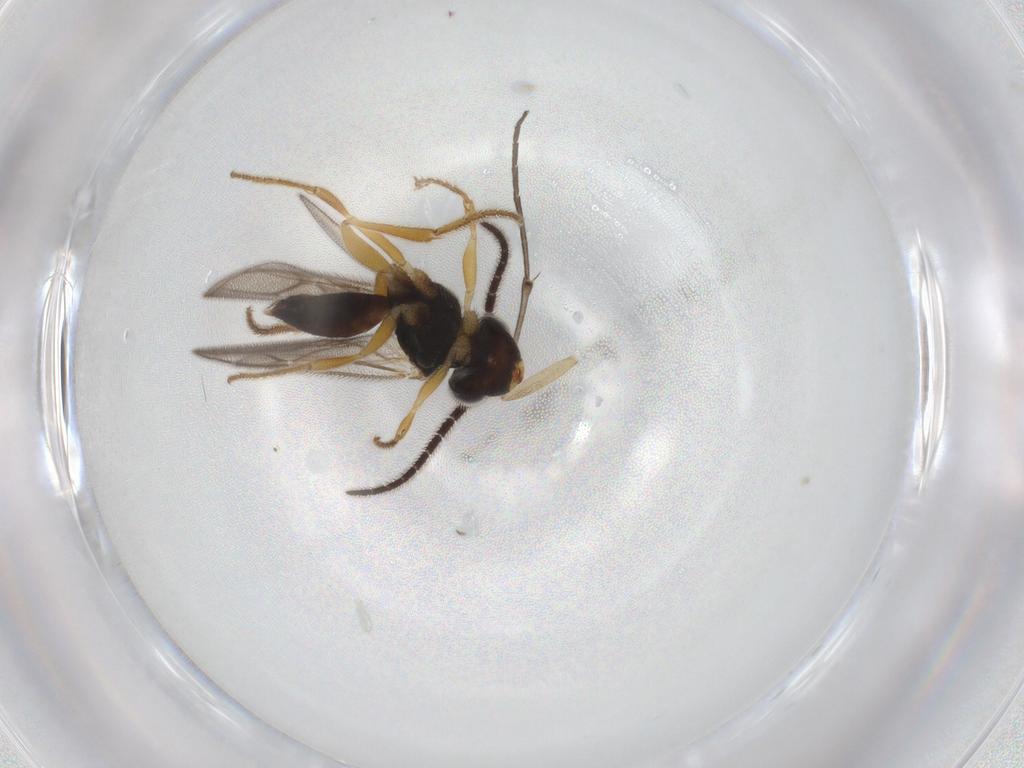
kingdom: Animalia
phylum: Arthropoda
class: Insecta
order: Hymenoptera
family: Dryinidae
